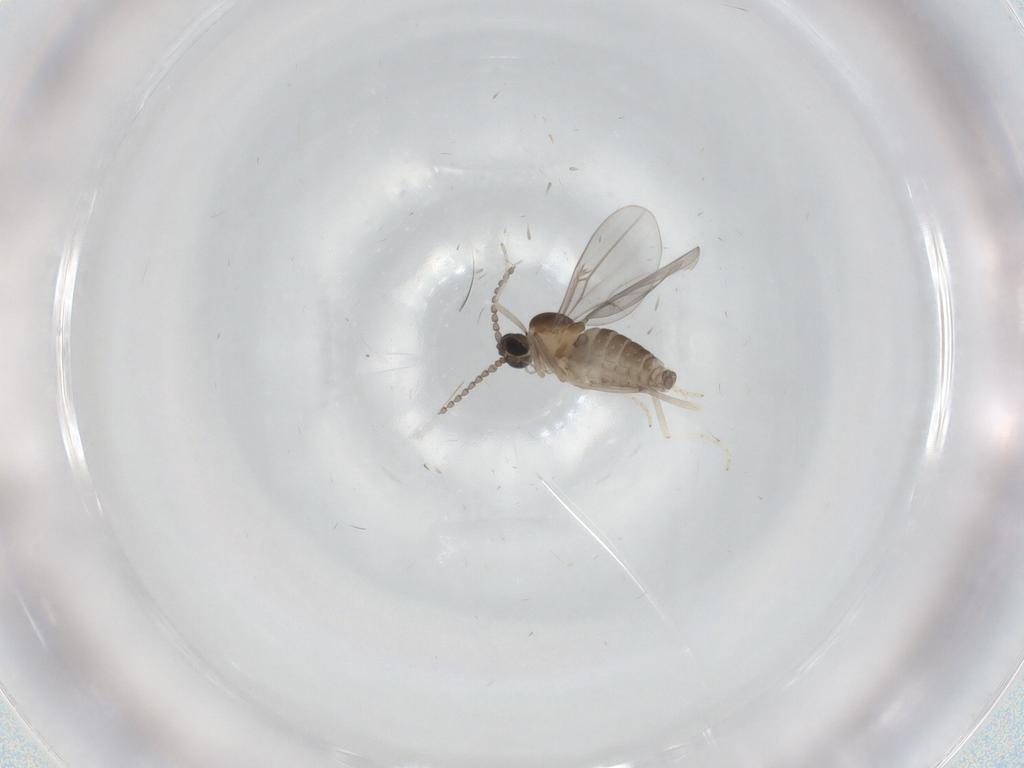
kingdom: Animalia
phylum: Arthropoda
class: Insecta
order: Diptera
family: Cecidomyiidae
